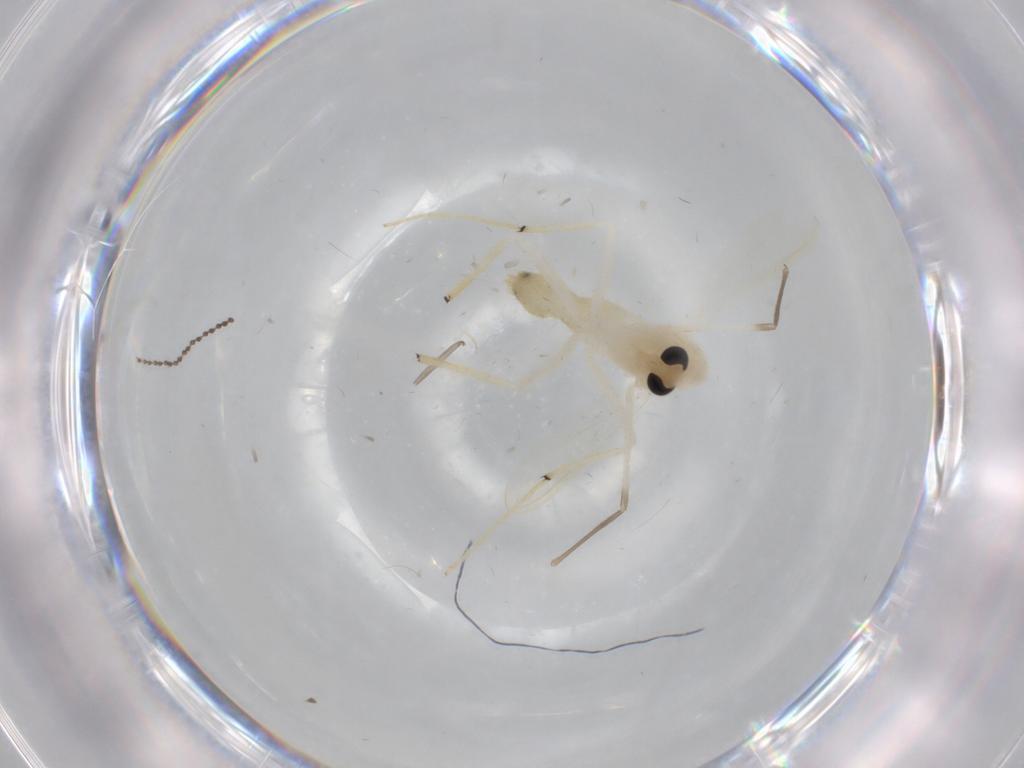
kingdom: Animalia
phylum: Arthropoda
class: Insecta
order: Diptera
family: Chironomidae
